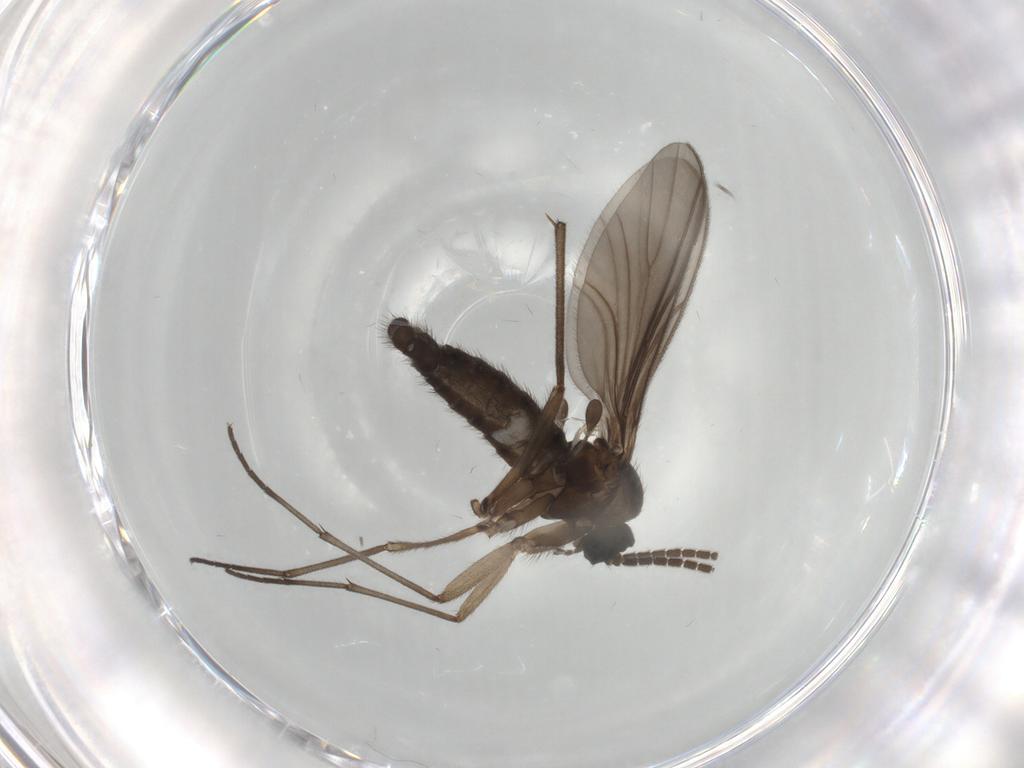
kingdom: Animalia
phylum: Arthropoda
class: Insecta
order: Diptera
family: Sciaridae
